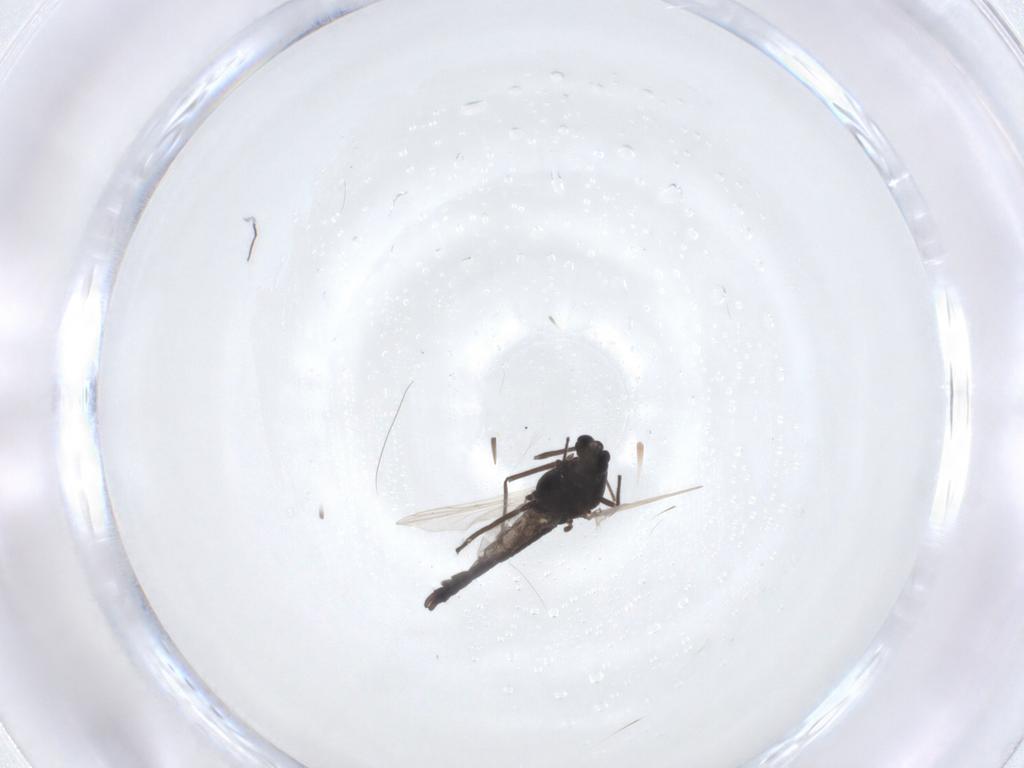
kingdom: Animalia
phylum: Arthropoda
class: Insecta
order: Diptera
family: Chironomidae
